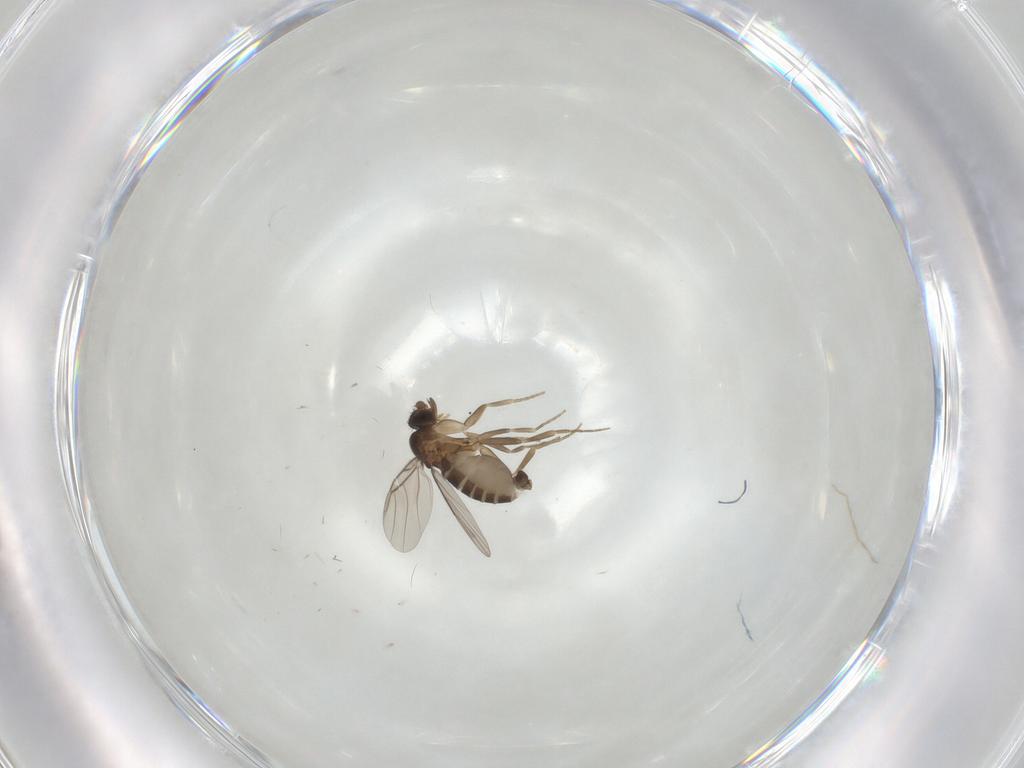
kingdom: Animalia
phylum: Arthropoda
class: Insecta
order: Diptera
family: Phoridae
